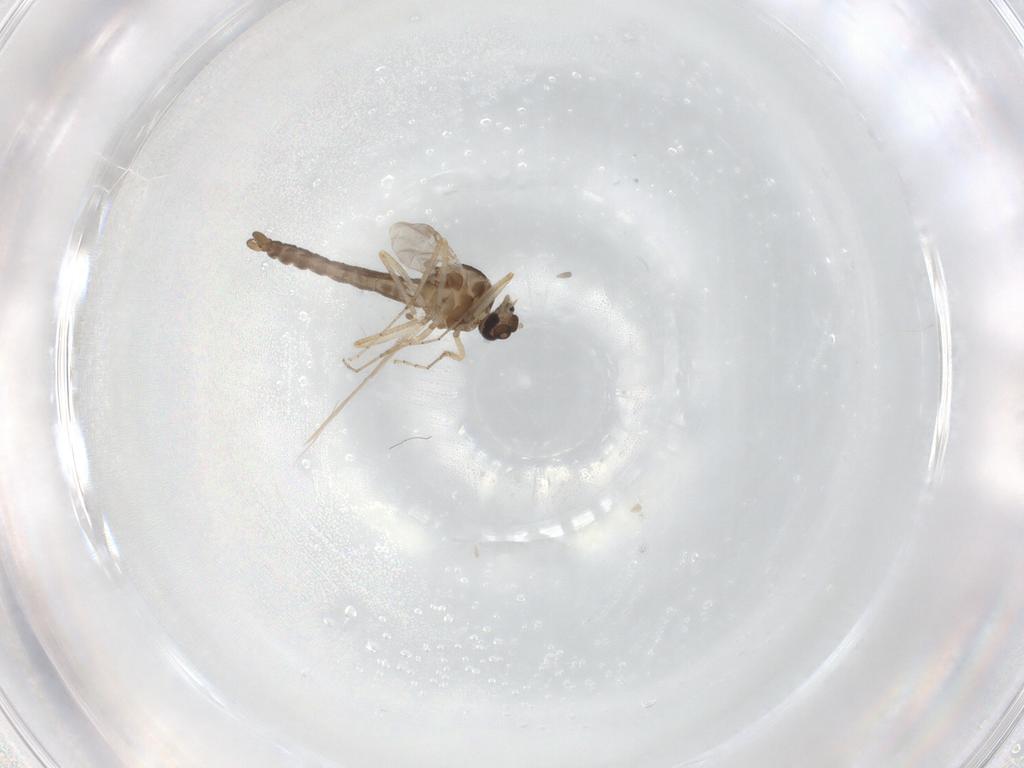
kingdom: Animalia
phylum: Arthropoda
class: Insecta
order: Diptera
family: Ceratopogonidae
